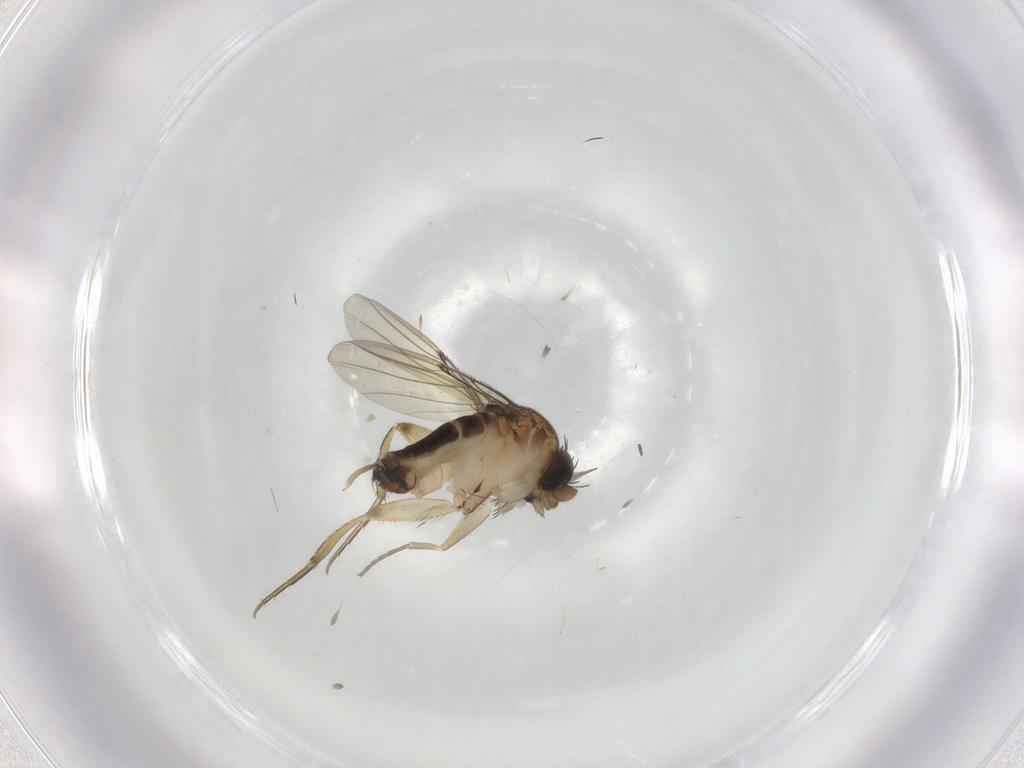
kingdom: Animalia
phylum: Arthropoda
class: Insecta
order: Diptera
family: Phoridae
